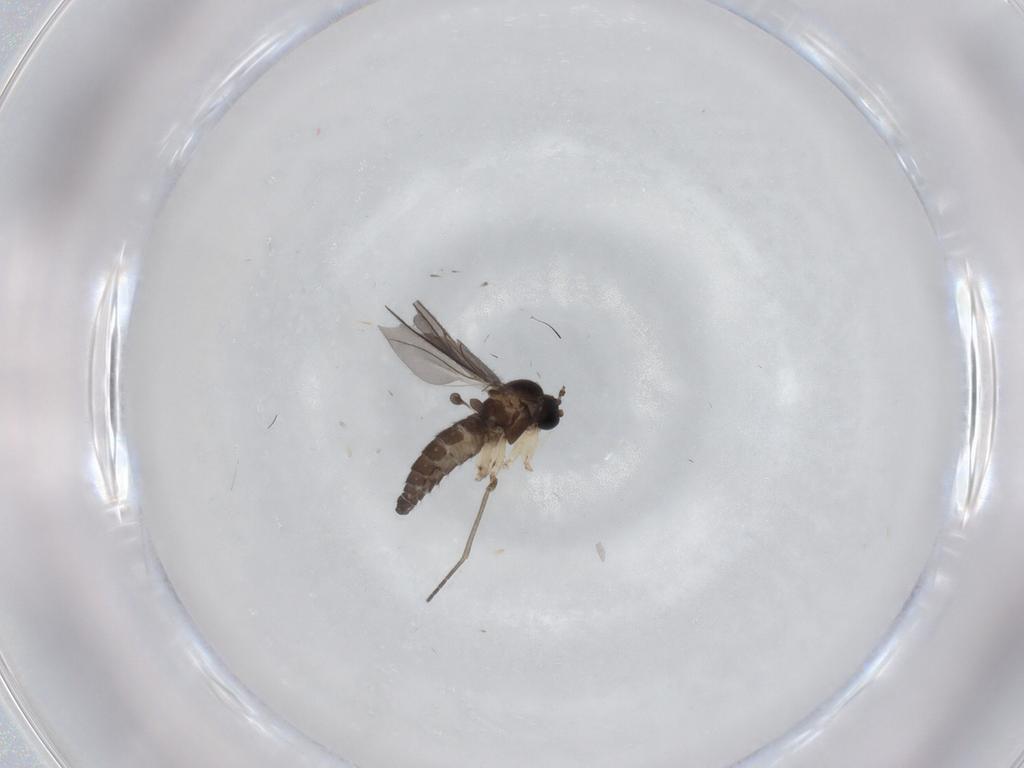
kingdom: Animalia
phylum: Arthropoda
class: Insecta
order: Diptera
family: Sciaridae
